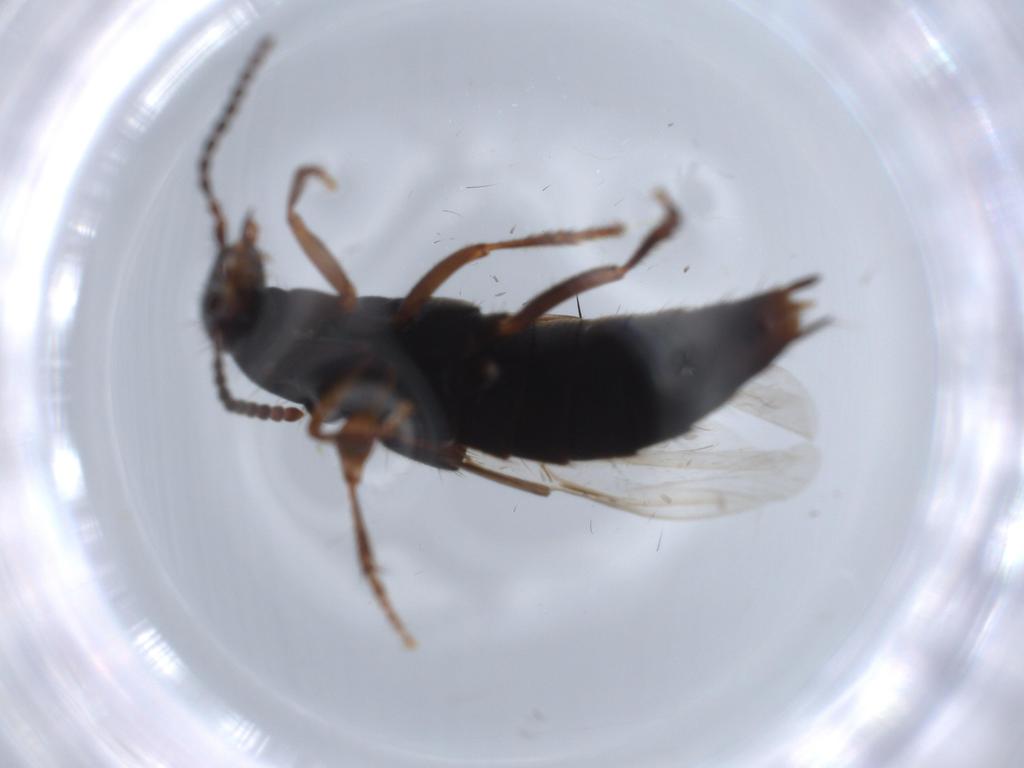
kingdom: Animalia
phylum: Arthropoda
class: Insecta
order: Coleoptera
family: Staphylinidae
